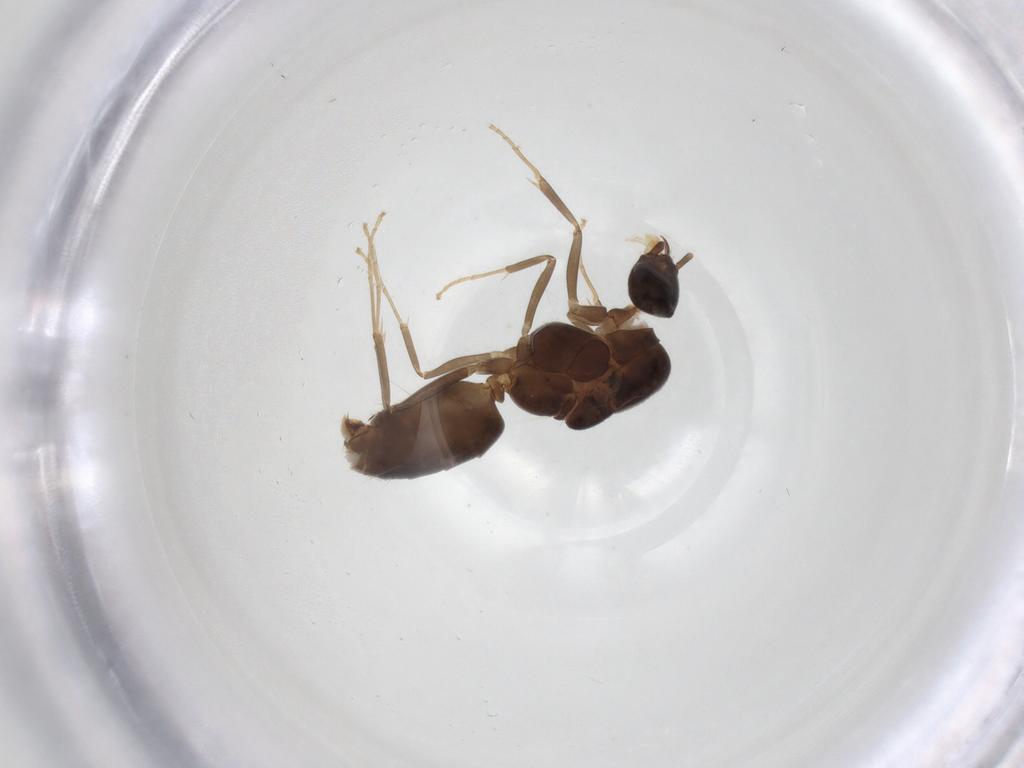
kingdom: Animalia
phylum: Arthropoda
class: Insecta
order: Hymenoptera
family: Formicidae
